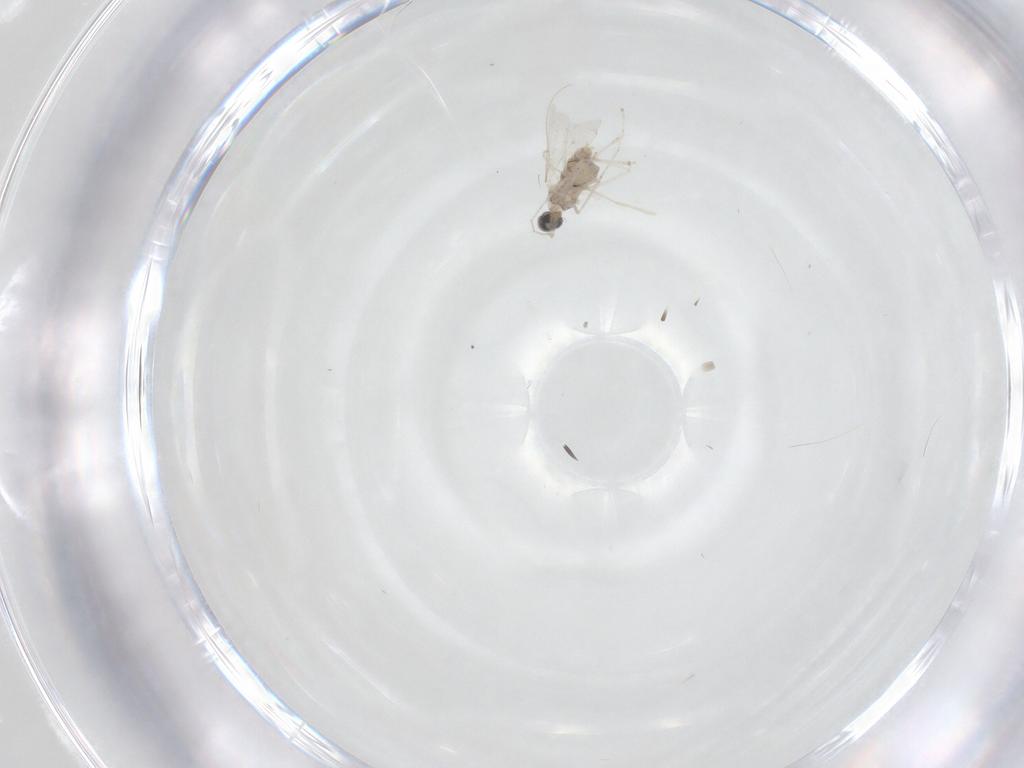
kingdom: Animalia
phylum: Arthropoda
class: Insecta
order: Diptera
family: Cecidomyiidae
